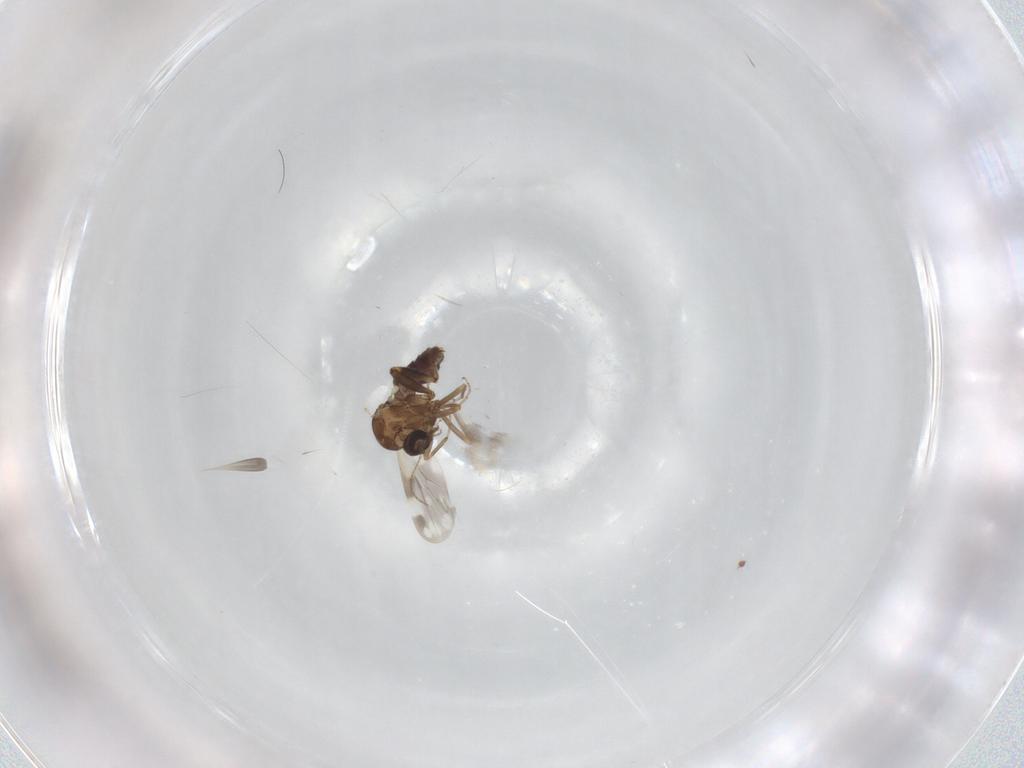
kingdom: Animalia
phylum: Arthropoda
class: Insecta
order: Diptera
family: Ceratopogonidae
